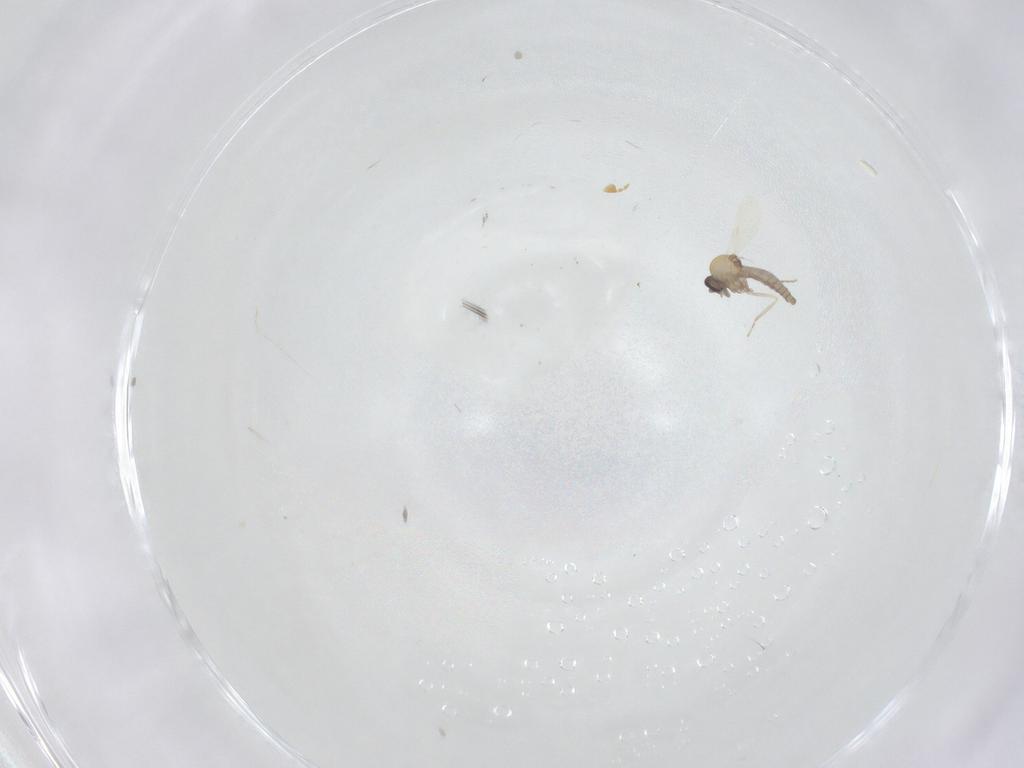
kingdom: Animalia
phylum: Arthropoda
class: Insecta
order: Diptera
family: Ceratopogonidae
